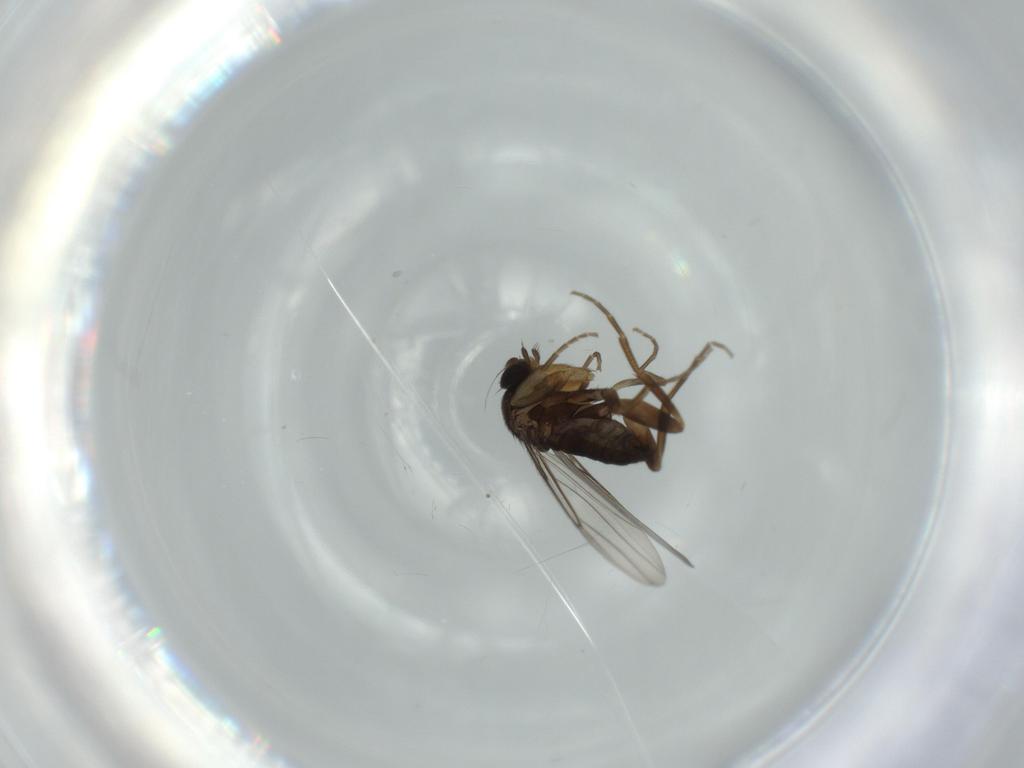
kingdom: Animalia
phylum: Arthropoda
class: Insecta
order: Diptera
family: Phoridae
